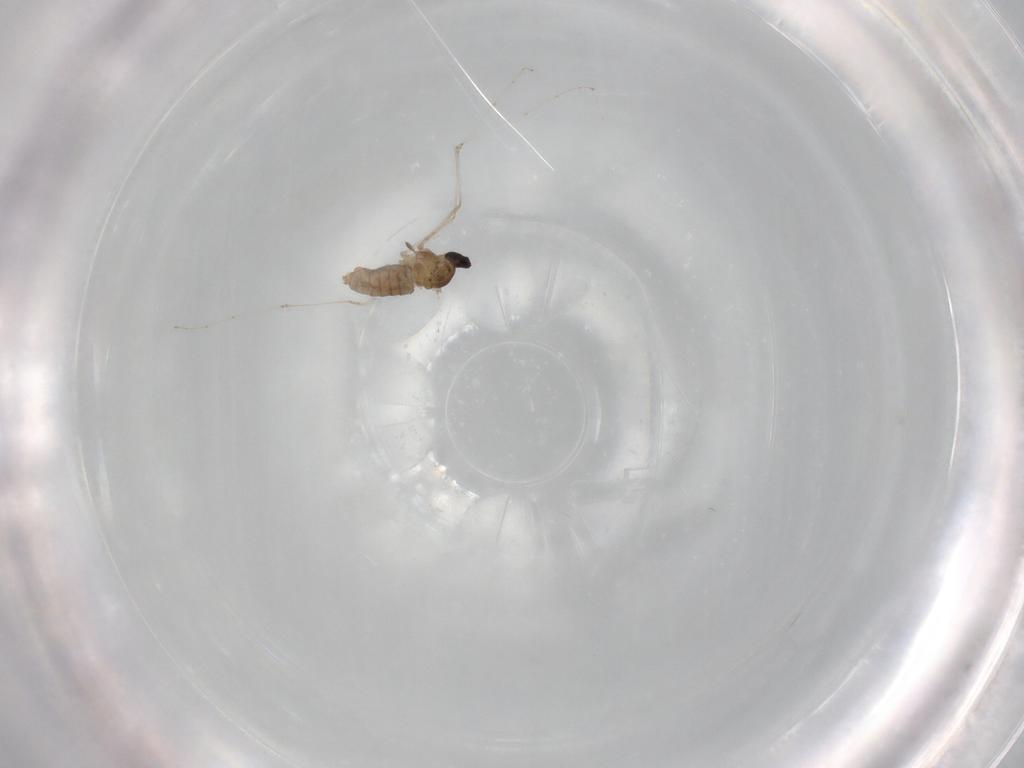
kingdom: Animalia
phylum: Arthropoda
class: Insecta
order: Diptera
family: Cecidomyiidae
